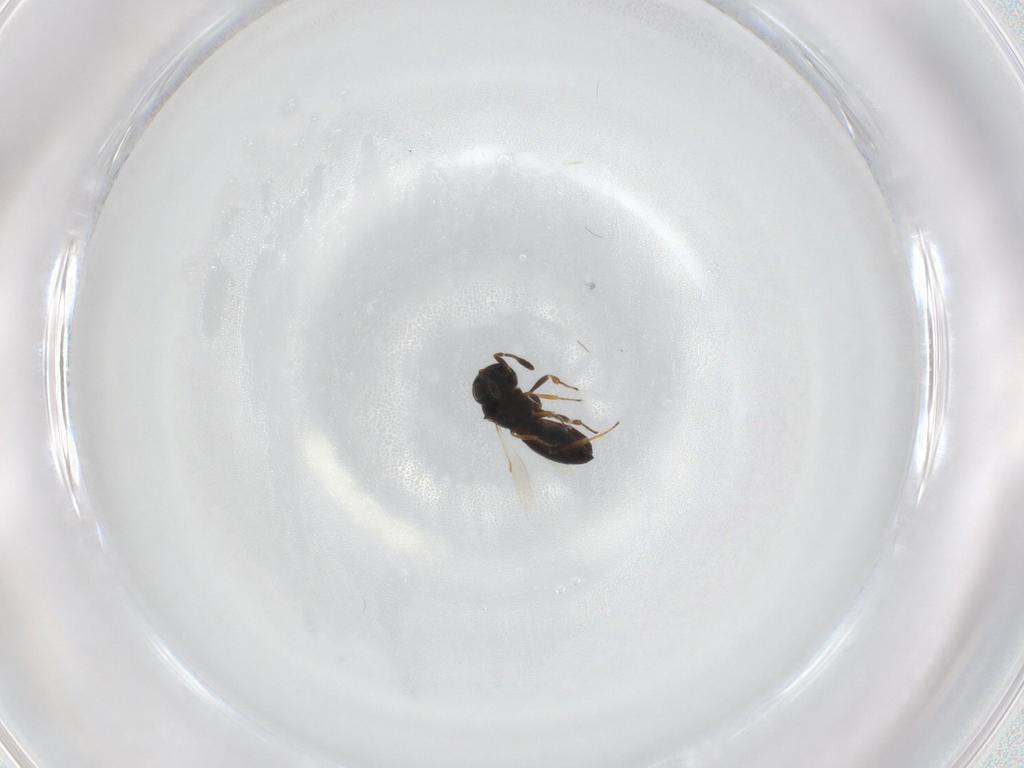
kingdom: Animalia
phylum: Arthropoda
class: Insecta
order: Hymenoptera
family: Scelionidae
